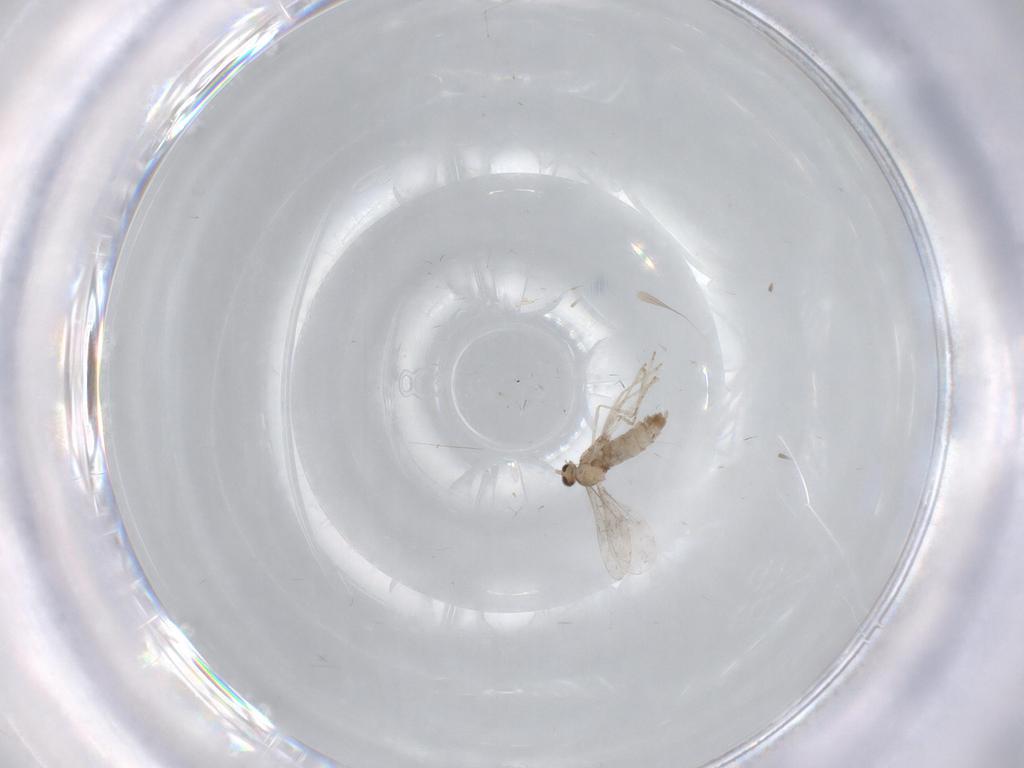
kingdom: Animalia
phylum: Arthropoda
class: Insecta
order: Diptera
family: Cecidomyiidae
